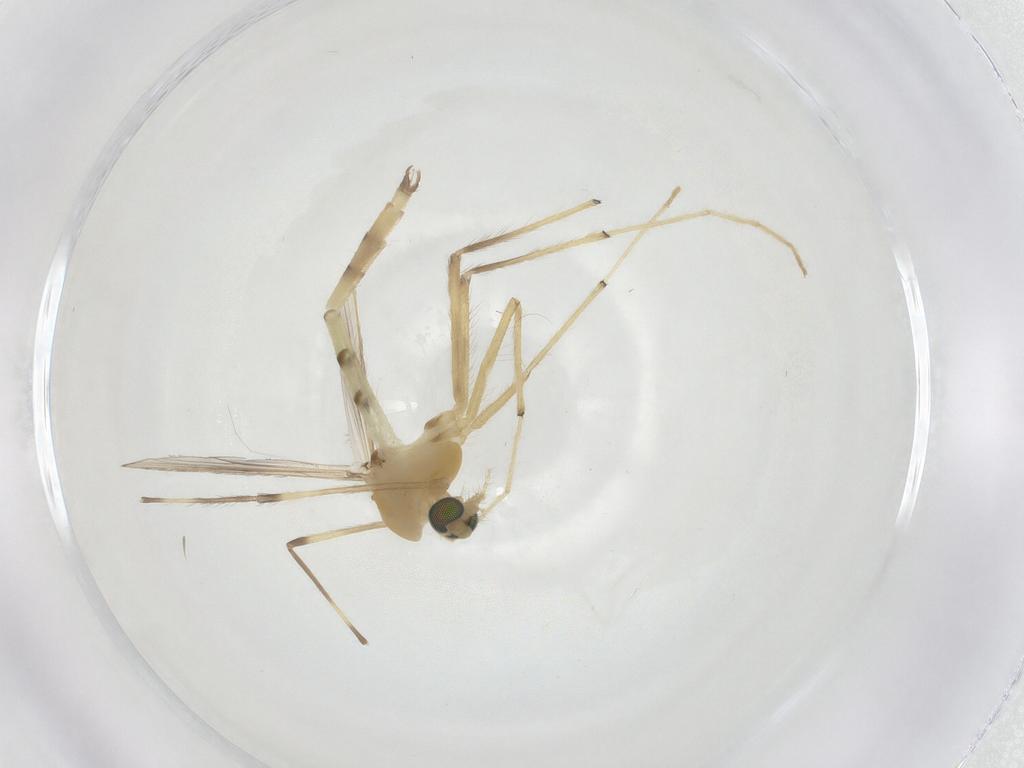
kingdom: Animalia
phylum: Arthropoda
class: Insecta
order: Diptera
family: Chironomidae
